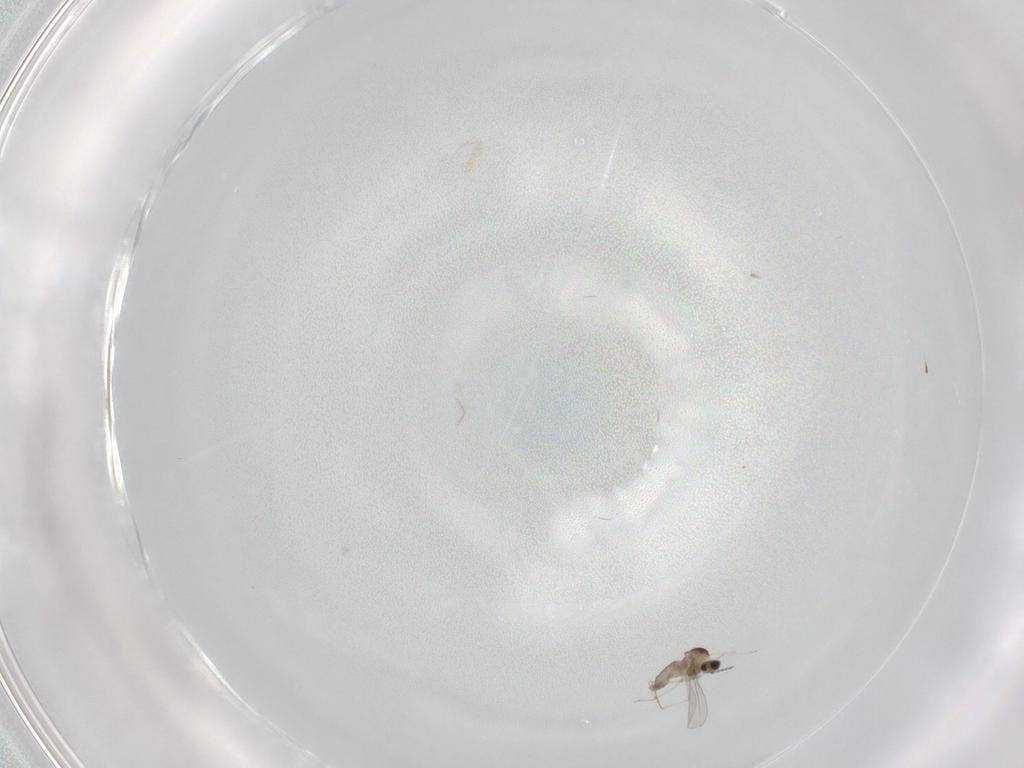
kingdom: Animalia
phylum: Arthropoda
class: Insecta
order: Diptera
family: Cecidomyiidae
